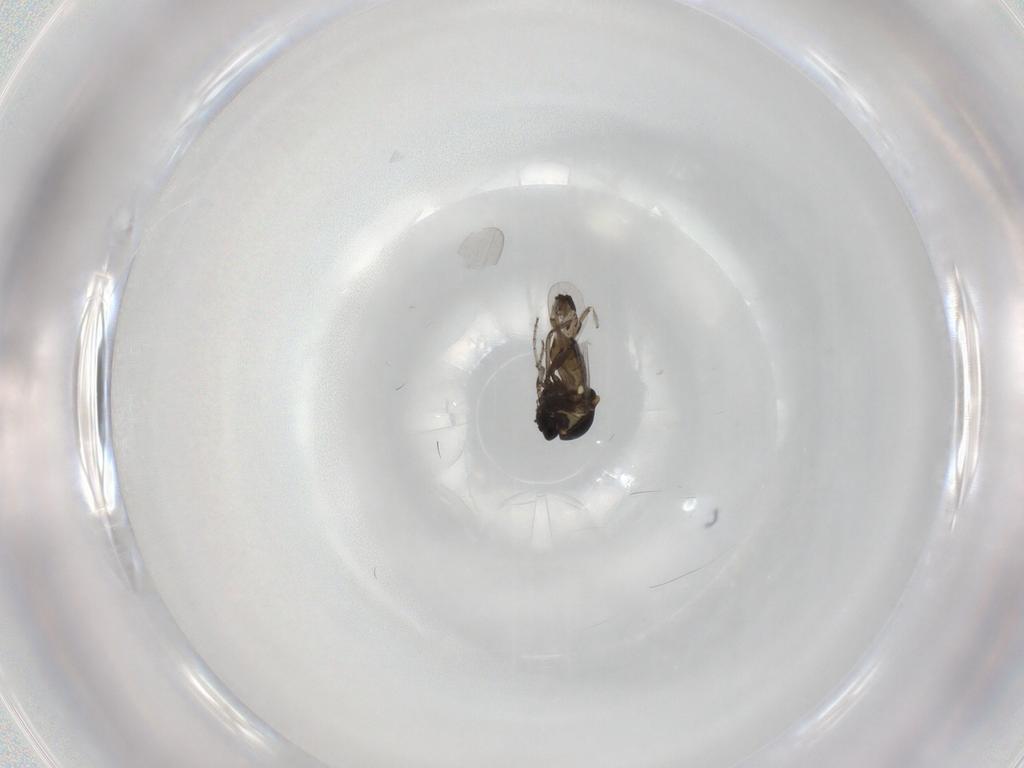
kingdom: Animalia
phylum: Arthropoda
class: Insecta
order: Diptera
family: Ceratopogonidae
